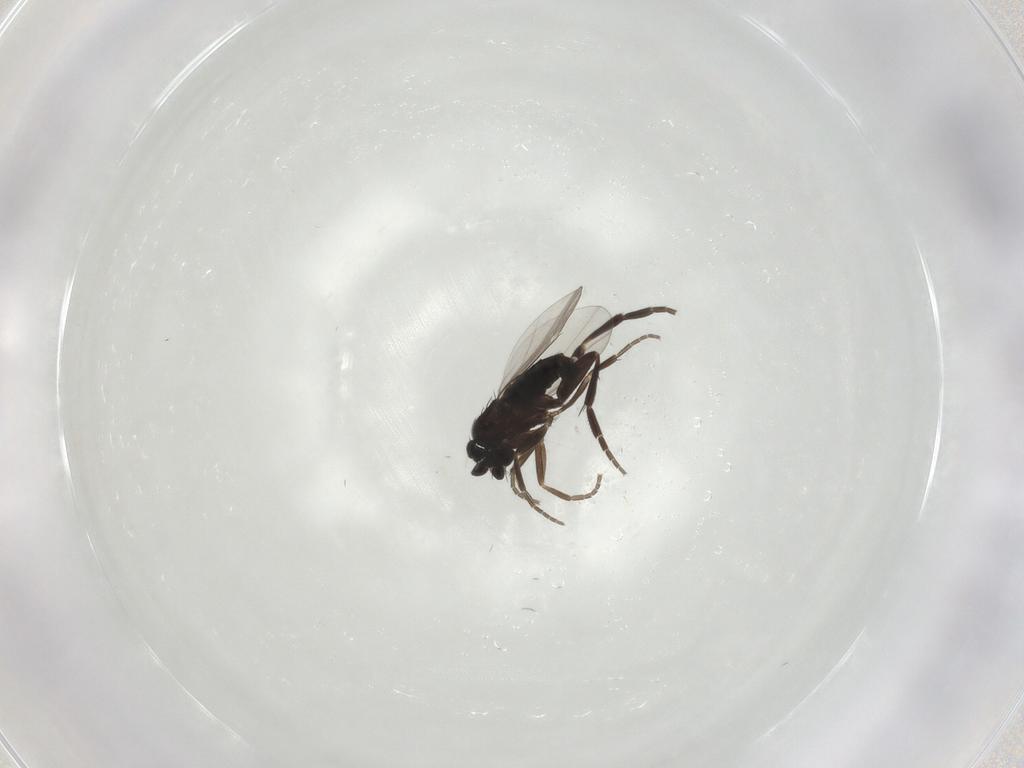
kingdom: Animalia
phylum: Arthropoda
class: Insecta
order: Diptera
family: Phoridae
